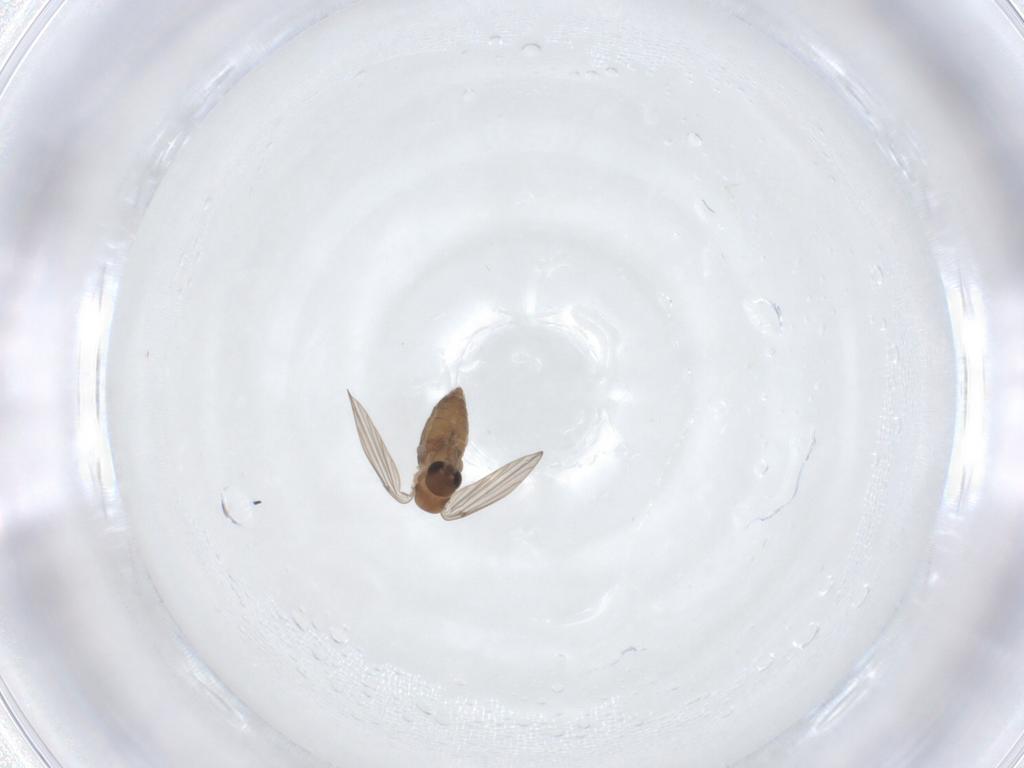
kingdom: Animalia
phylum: Arthropoda
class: Insecta
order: Diptera
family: Psychodidae
